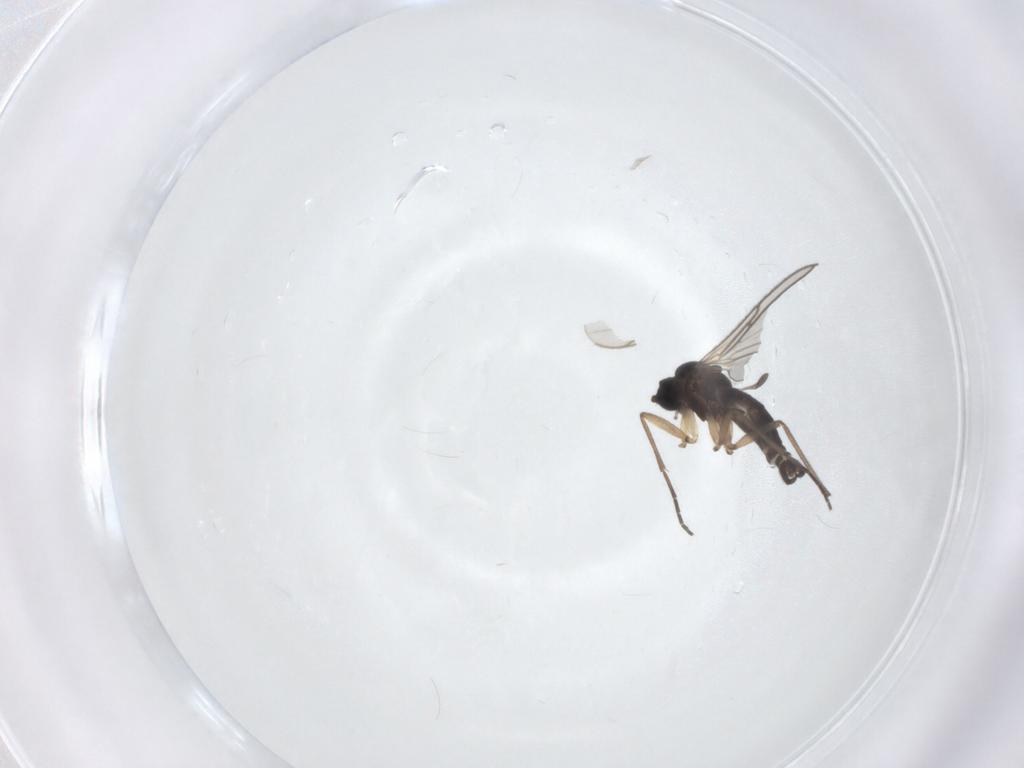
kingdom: Animalia
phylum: Arthropoda
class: Insecta
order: Diptera
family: Sciaridae
